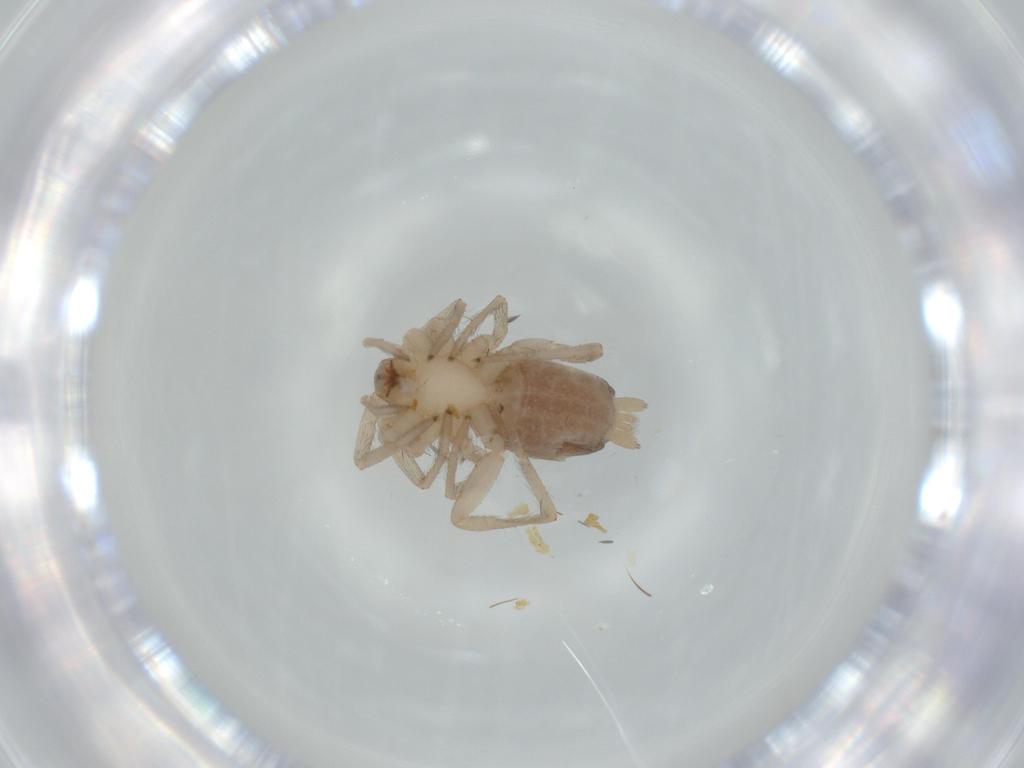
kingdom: Animalia
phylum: Arthropoda
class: Arachnida
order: Araneae
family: Gnaphosidae
